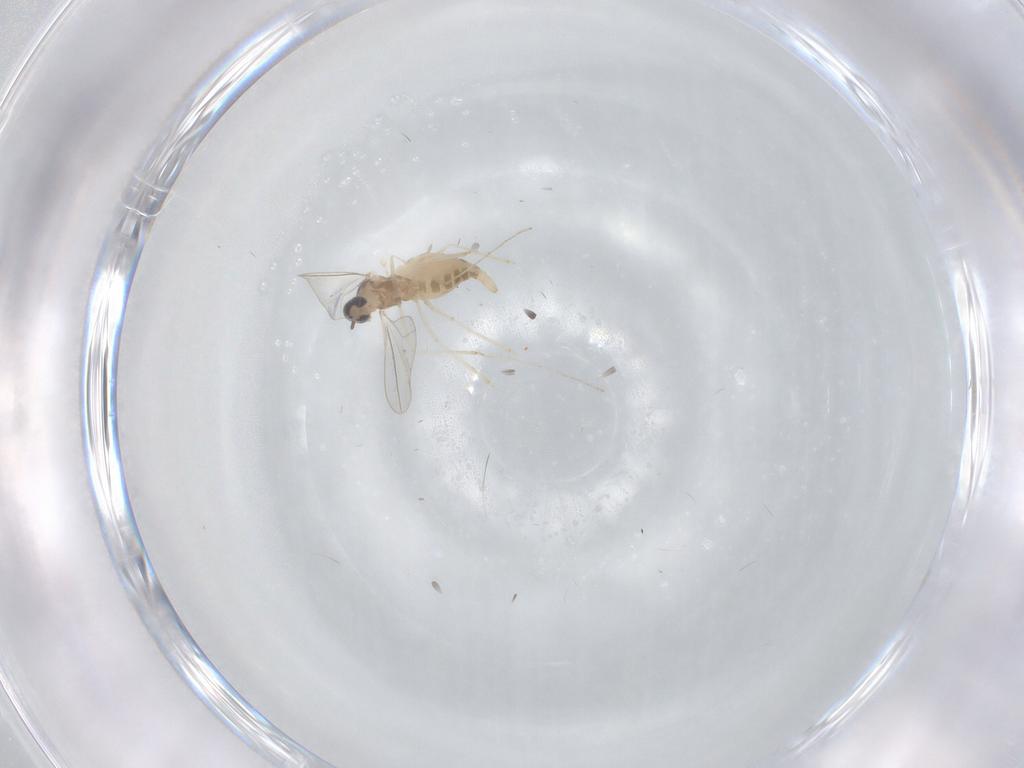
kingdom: Animalia
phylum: Arthropoda
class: Insecta
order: Diptera
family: Cecidomyiidae
